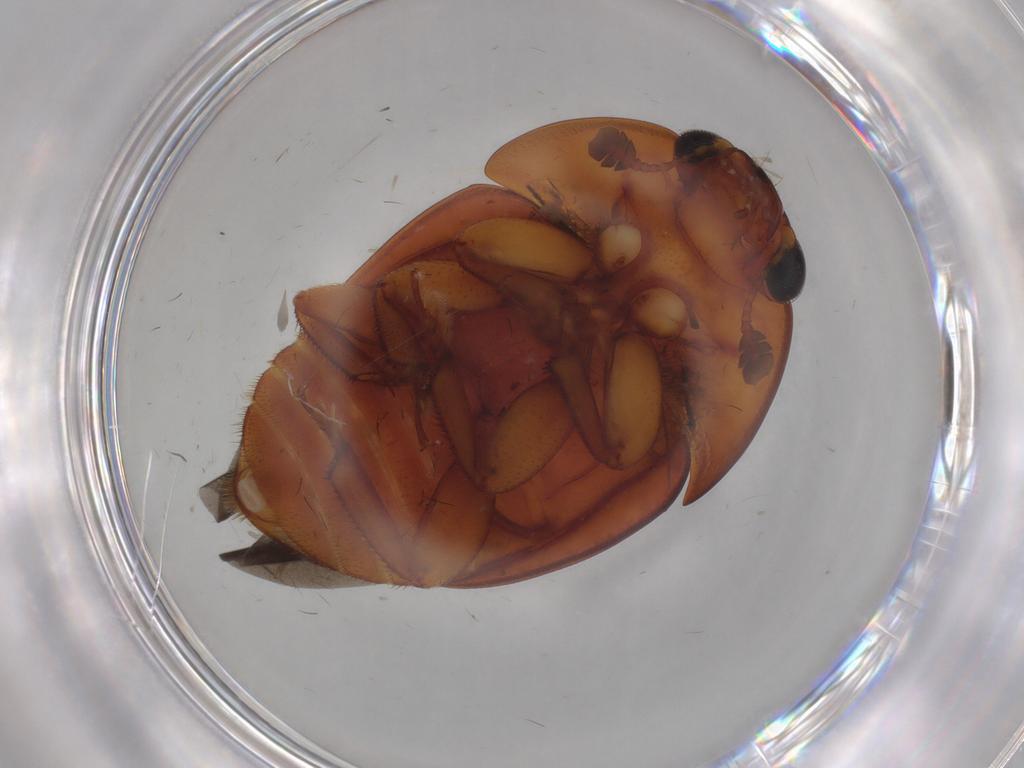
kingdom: Animalia
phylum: Arthropoda
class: Insecta
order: Coleoptera
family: Nitidulidae
